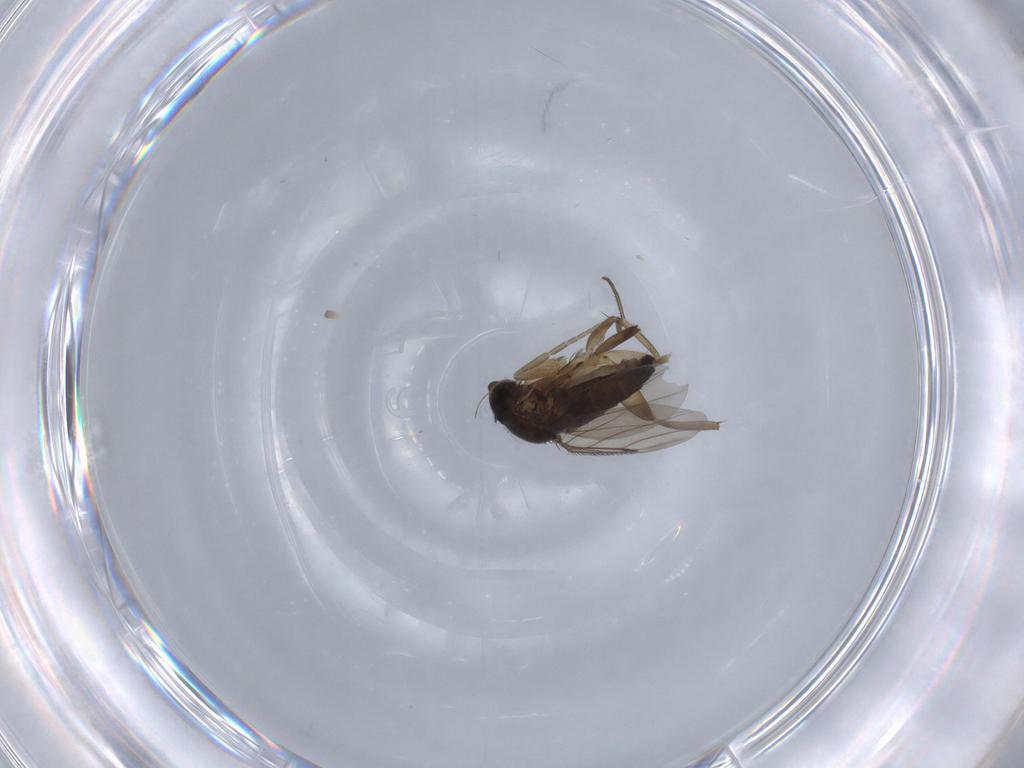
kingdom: Animalia
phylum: Arthropoda
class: Insecta
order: Diptera
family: Phoridae
